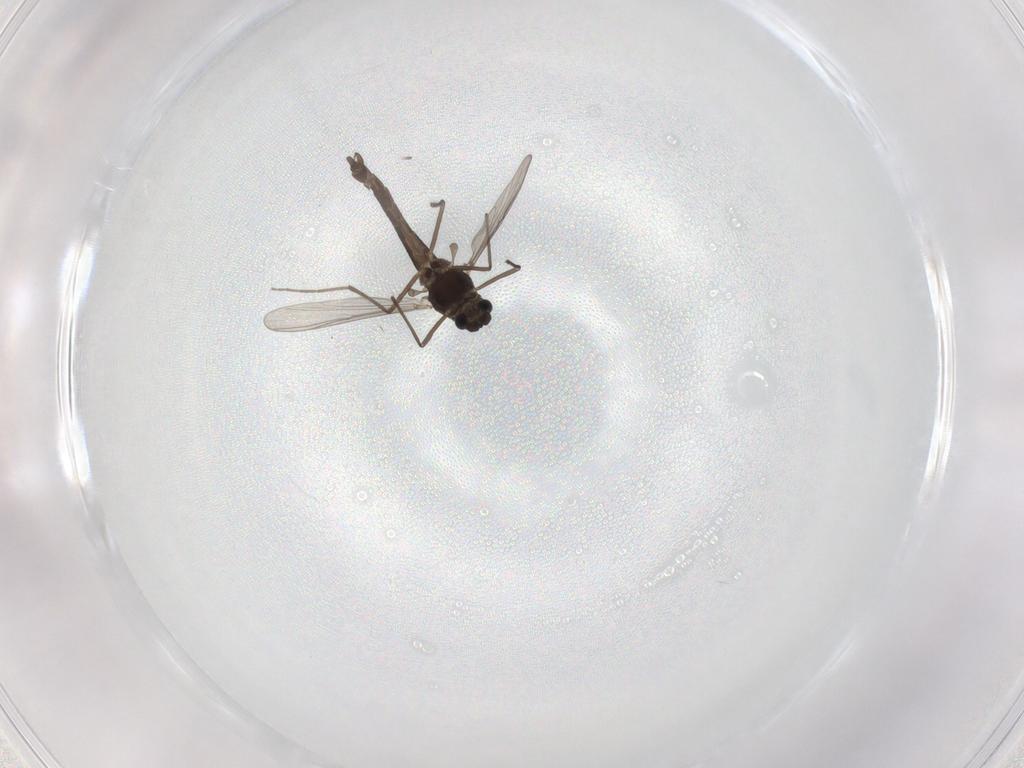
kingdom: Animalia
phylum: Arthropoda
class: Insecta
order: Diptera
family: Chironomidae
